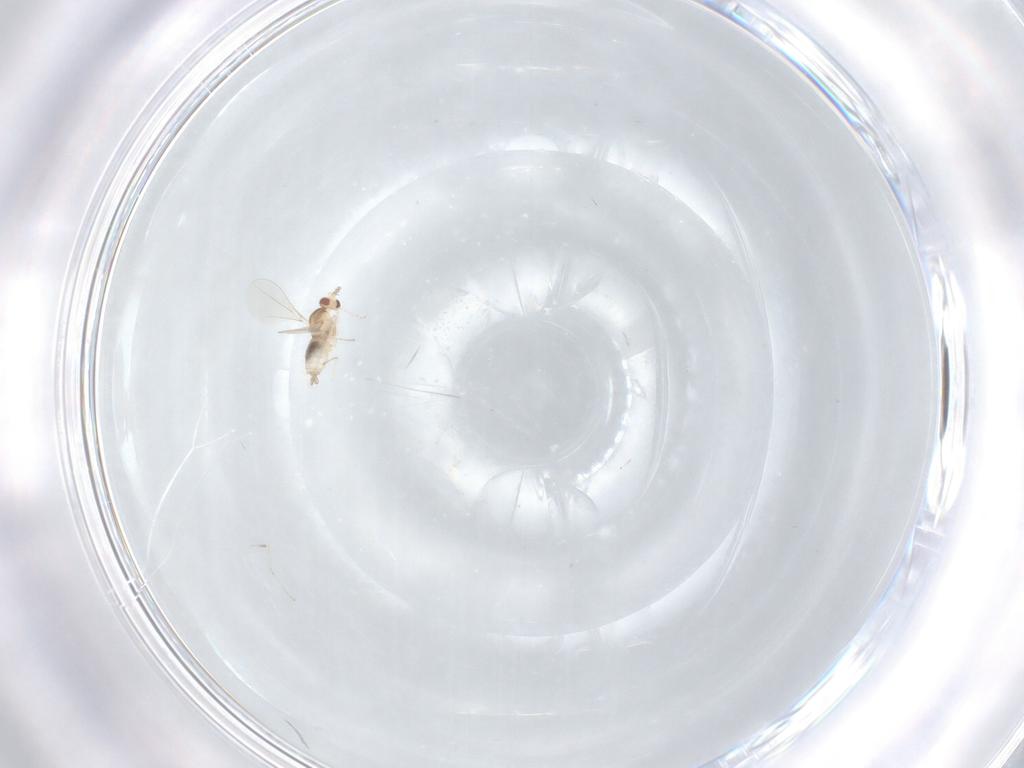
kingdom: Animalia
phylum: Arthropoda
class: Insecta
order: Diptera
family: Cecidomyiidae
